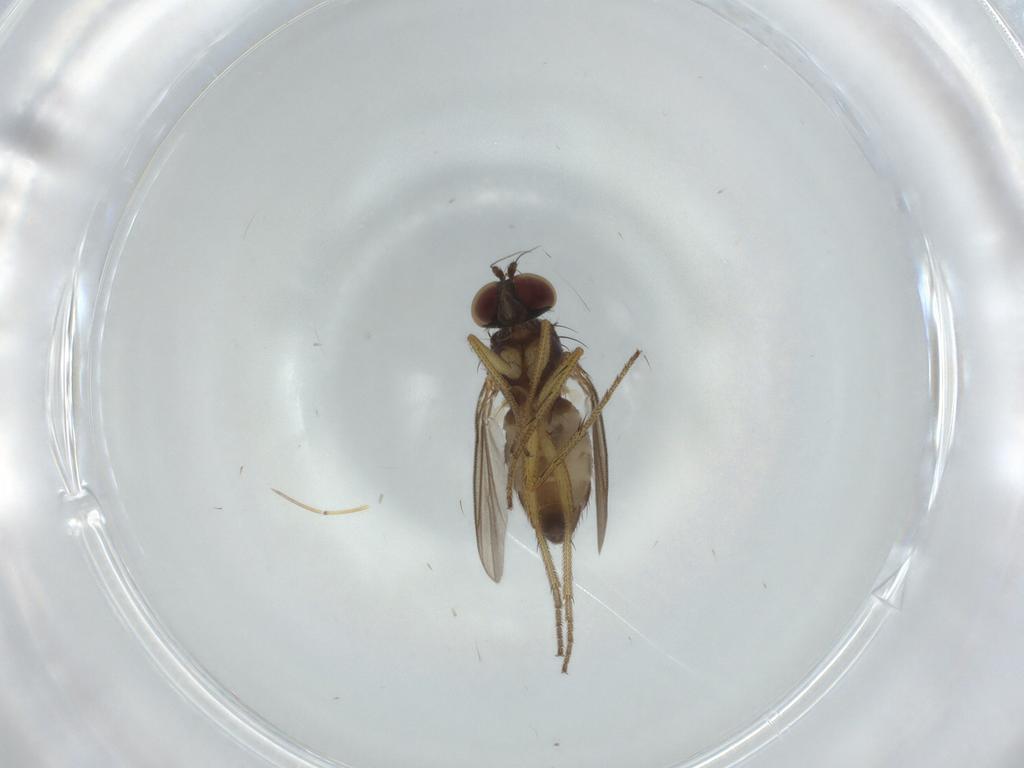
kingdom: Animalia
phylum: Arthropoda
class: Insecta
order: Diptera
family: Dolichopodidae
